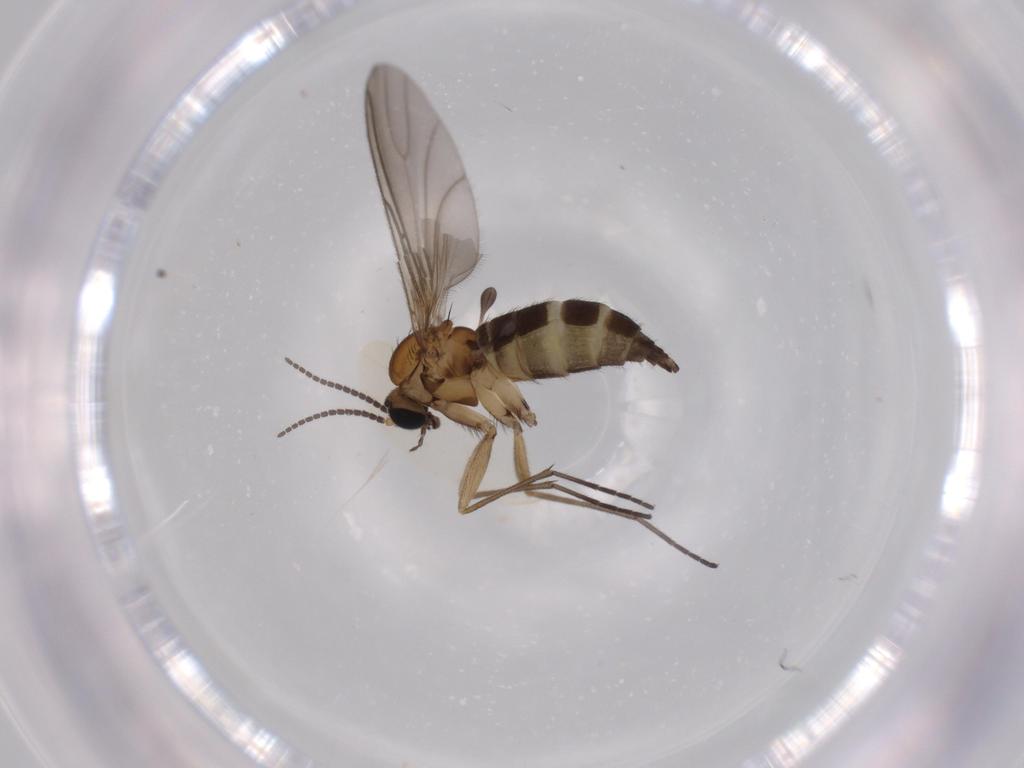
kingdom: Animalia
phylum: Arthropoda
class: Insecta
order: Diptera
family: Sciaridae
